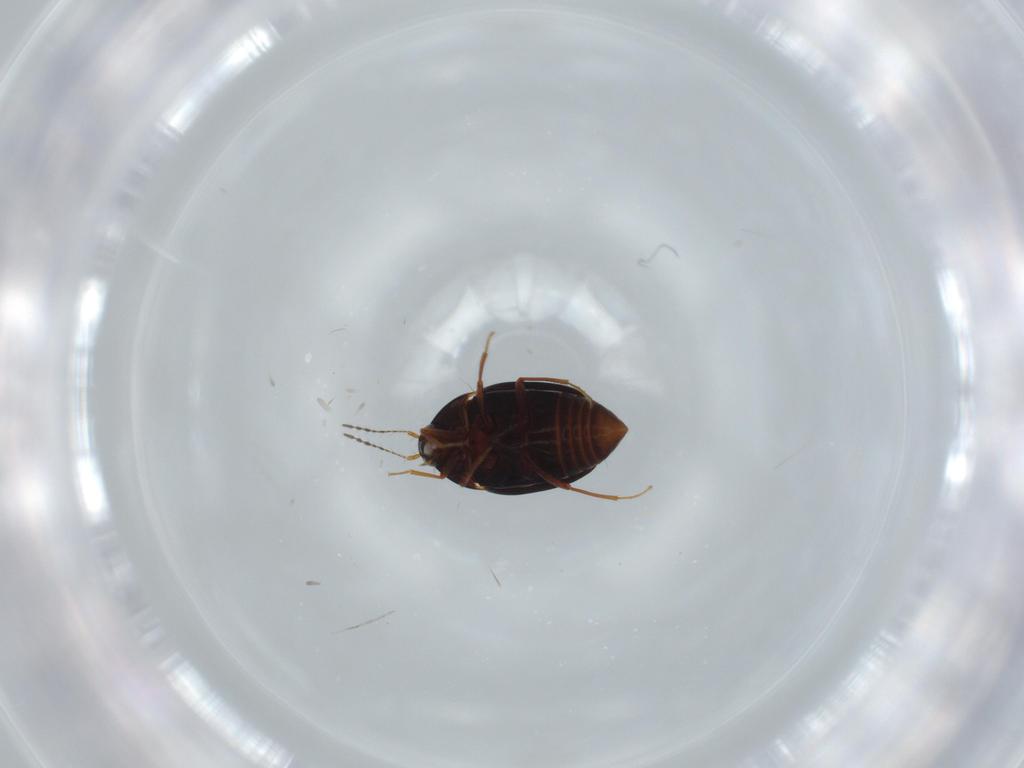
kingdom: Animalia
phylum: Arthropoda
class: Insecta
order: Coleoptera
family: Staphylinidae
